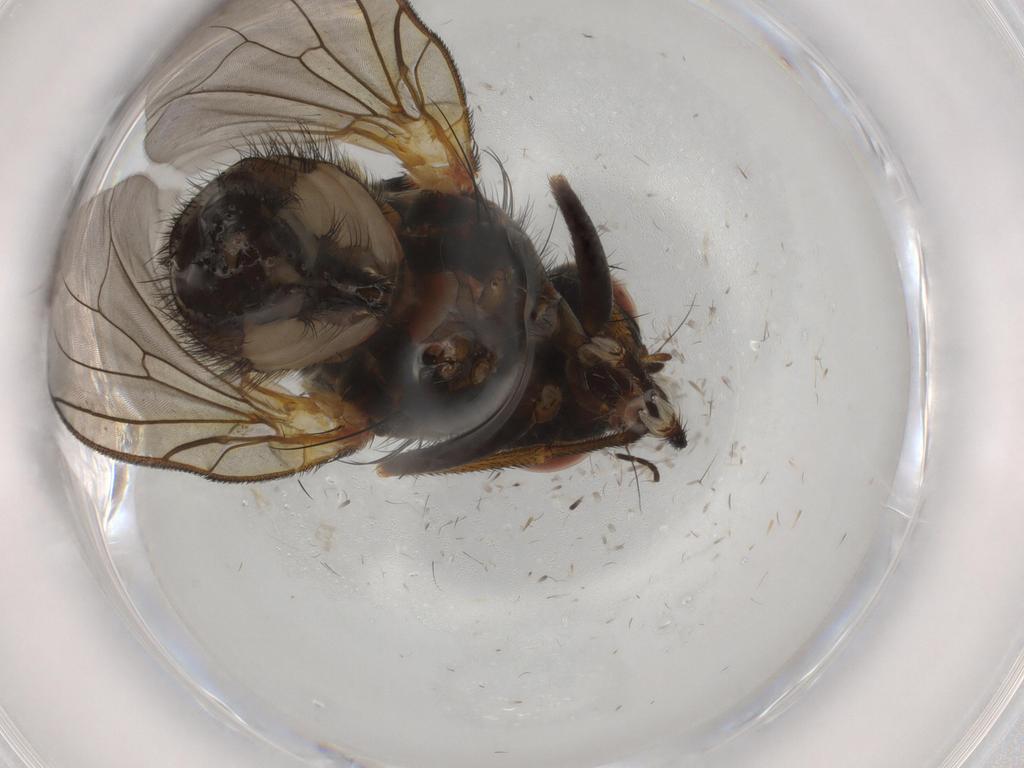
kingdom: Animalia
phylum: Arthropoda
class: Insecta
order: Diptera
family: Anthomyiidae
